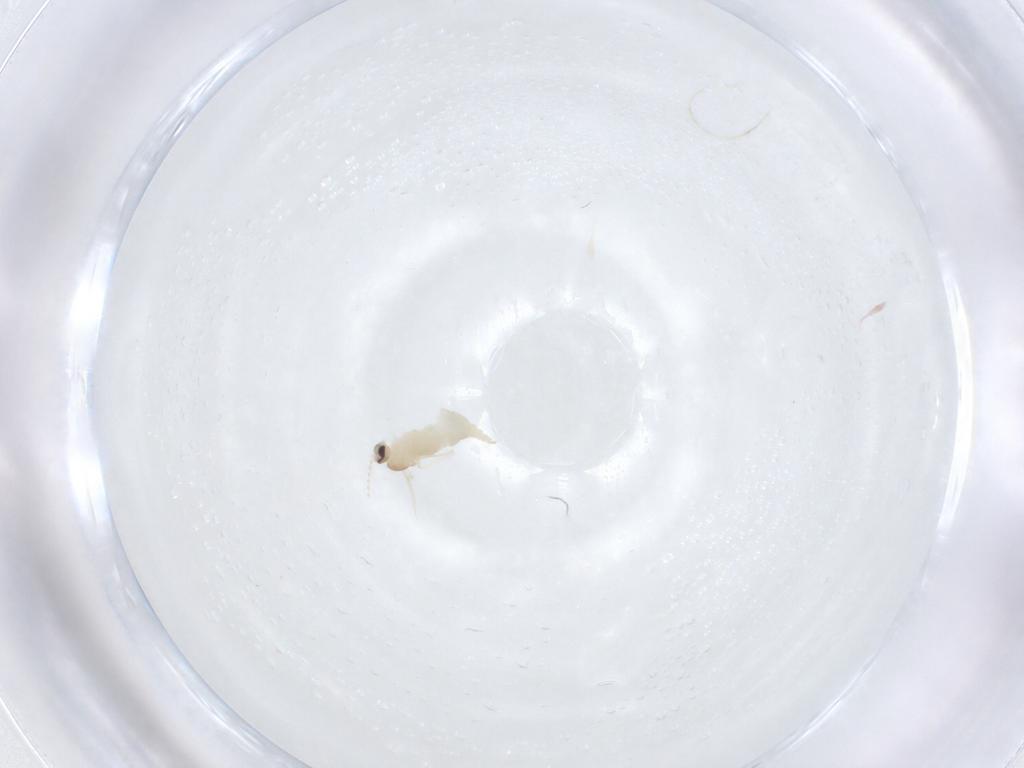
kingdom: Animalia
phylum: Arthropoda
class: Insecta
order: Diptera
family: Cecidomyiidae
